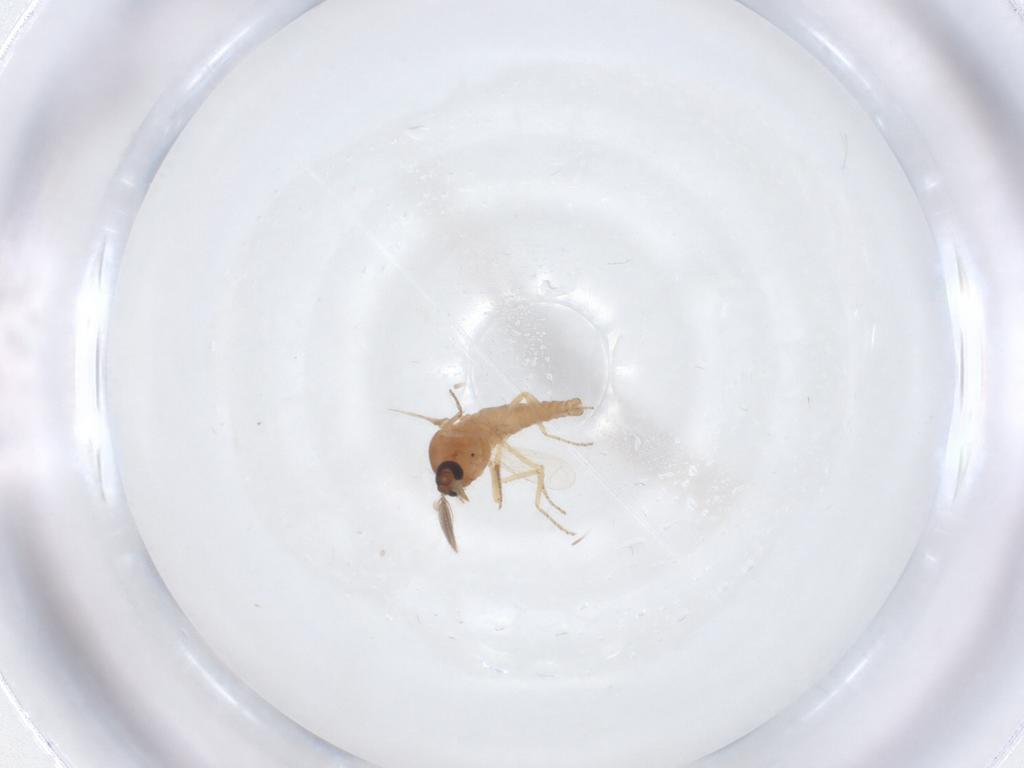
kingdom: Animalia
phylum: Arthropoda
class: Insecta
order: Diptera
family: Ceratopogonidae
